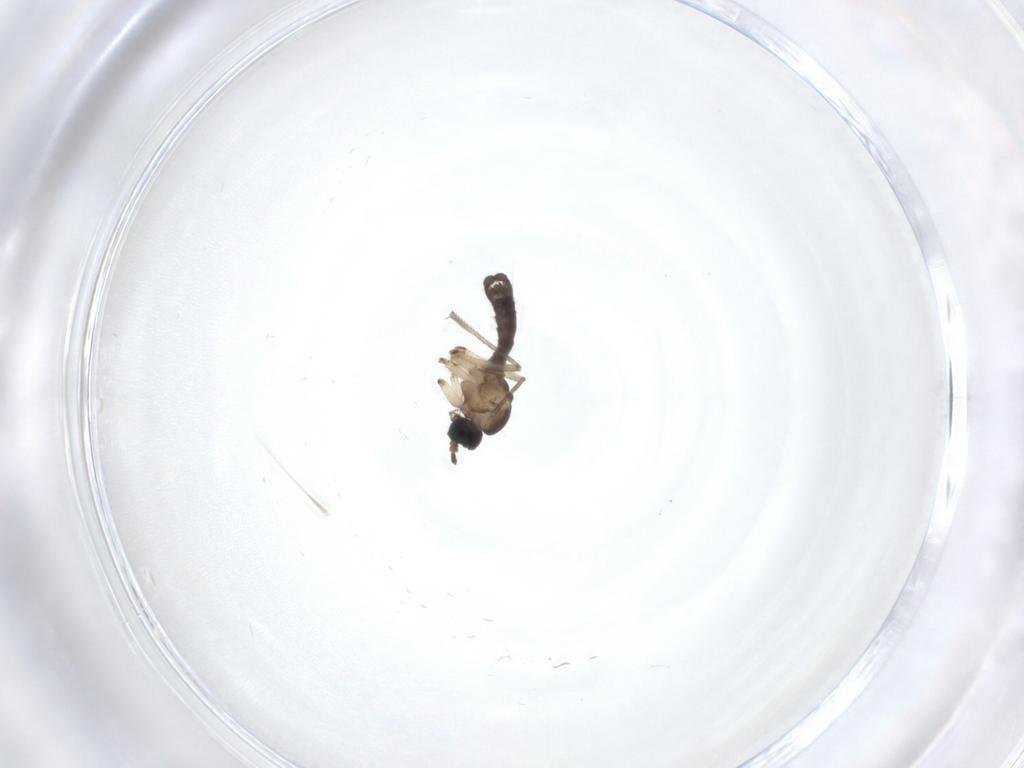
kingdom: Animalia
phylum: Arthropoda
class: Insecta
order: Diptera
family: Sciaridae
